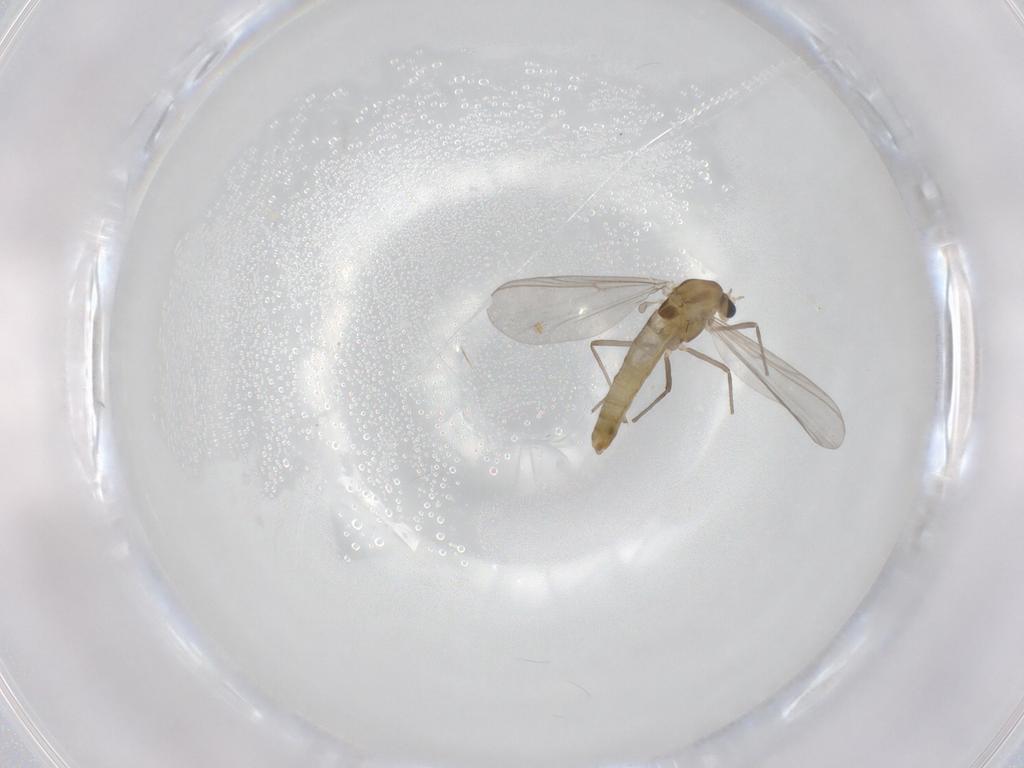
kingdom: Animalia
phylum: Arthropoda
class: Insecta
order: Diptera
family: Chironomidae
